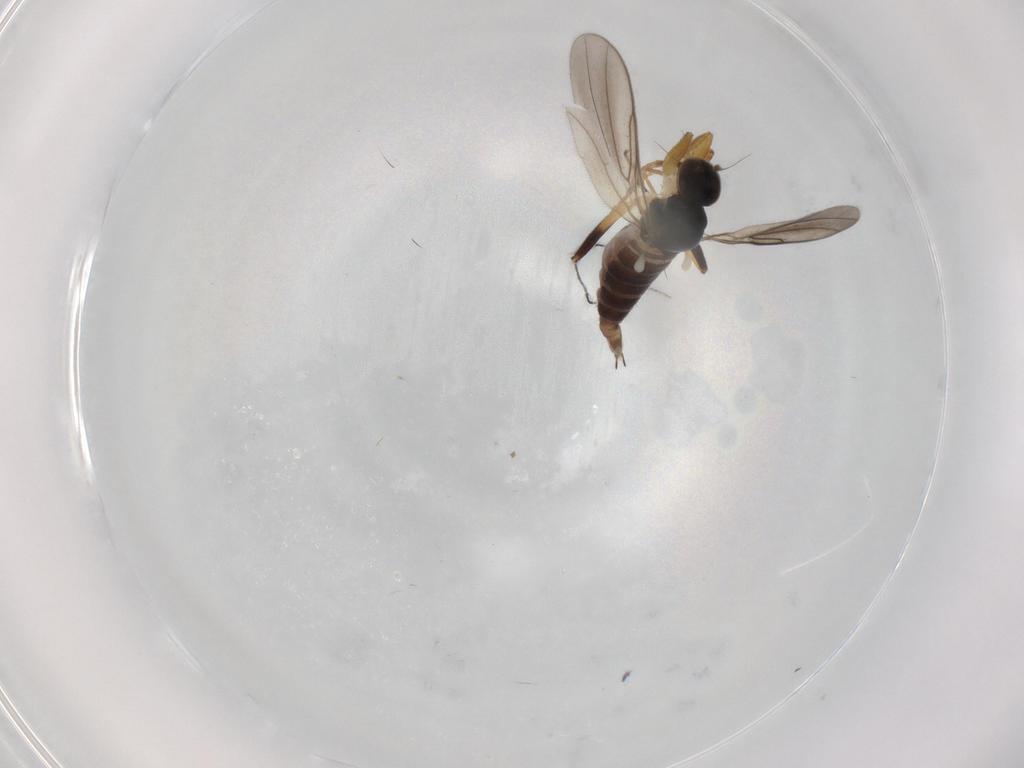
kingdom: Animalia
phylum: Arthropoda
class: Insecta
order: Diptera
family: Hybotidae
